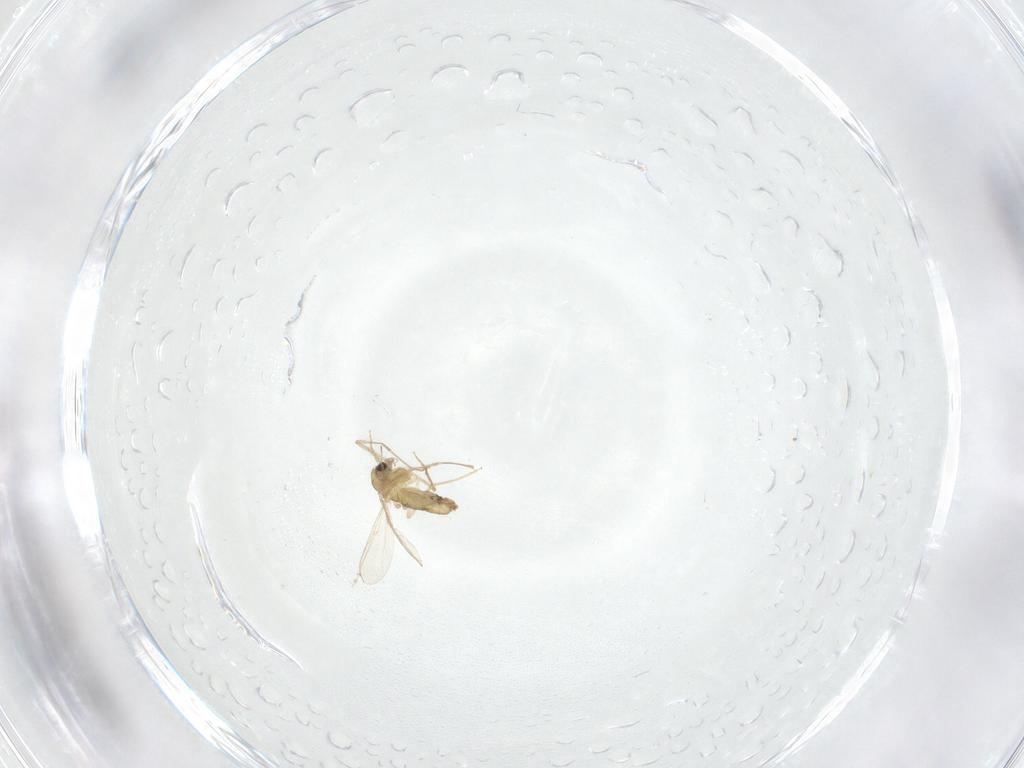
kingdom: Animalia
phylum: Arthropoda
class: Insecta
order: Diptera
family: Chironomidae
